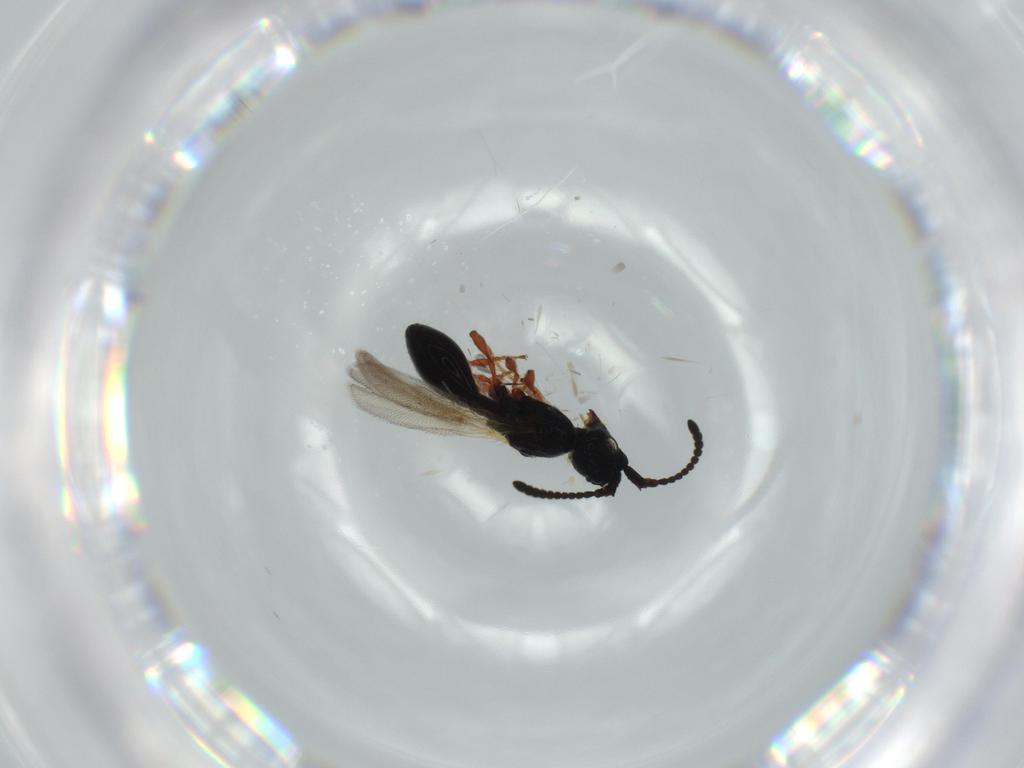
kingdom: Animalia
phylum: Arthropoda
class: Insecta
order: Hymenoptera
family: Diapriidae
